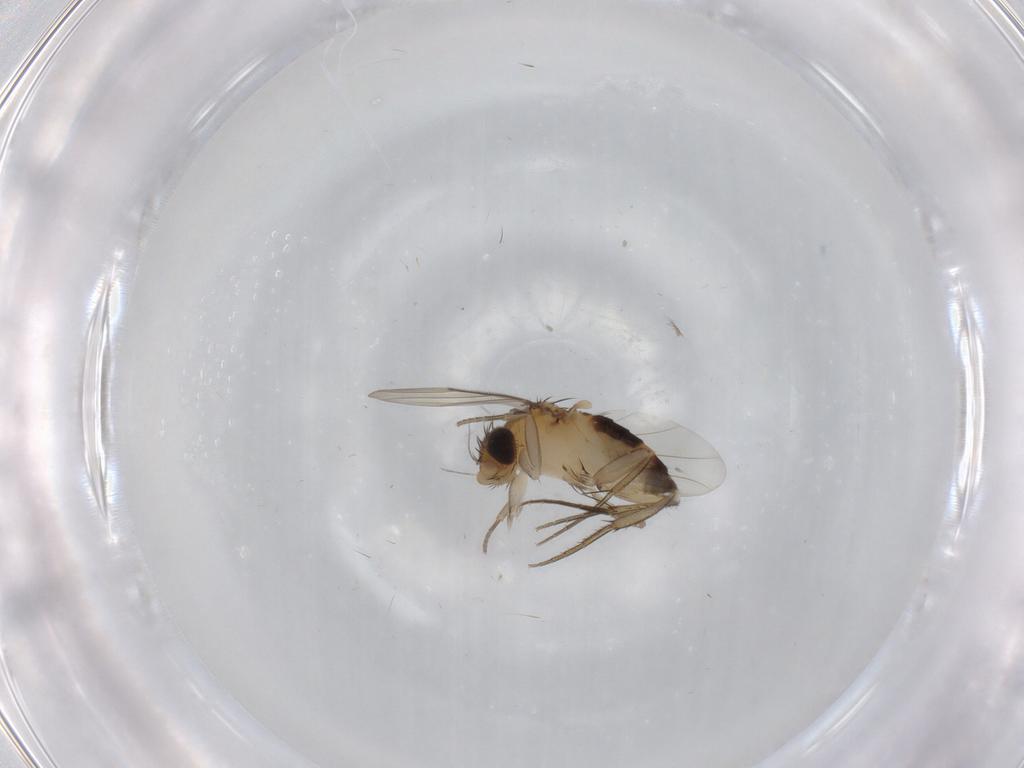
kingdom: Animalia
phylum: Arthropoda
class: Insecta
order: Diptera
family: Phoridae
